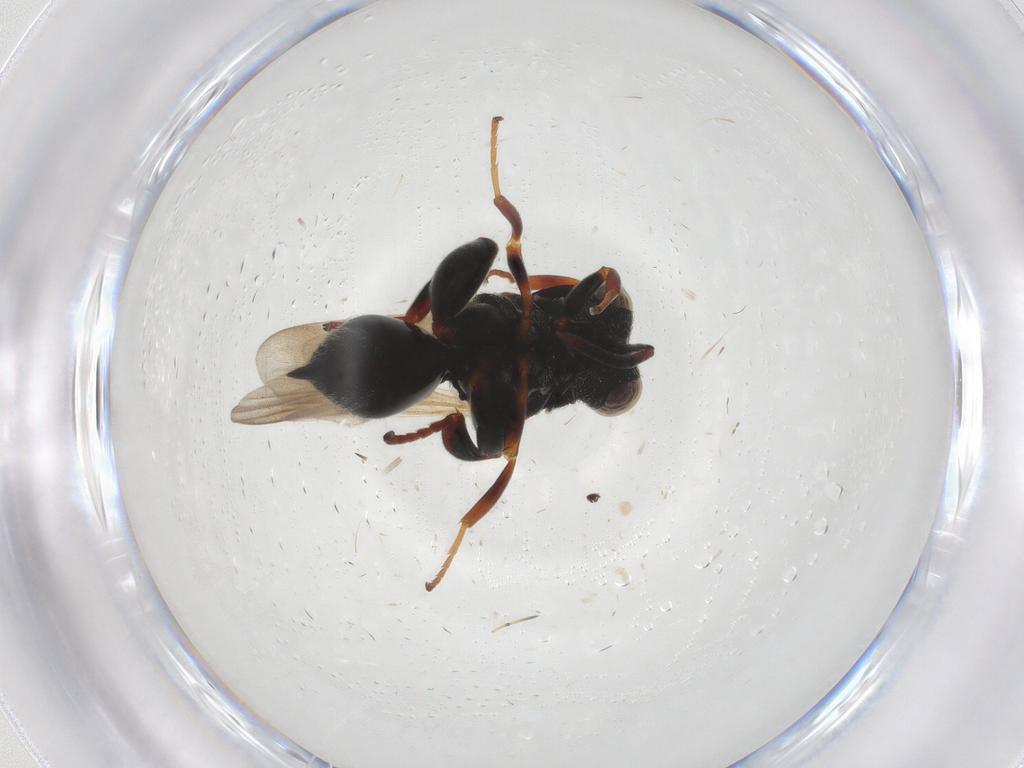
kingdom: Animalia
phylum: Arthropoda
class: Insecta
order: Hymenoptera
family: Chalcididae
